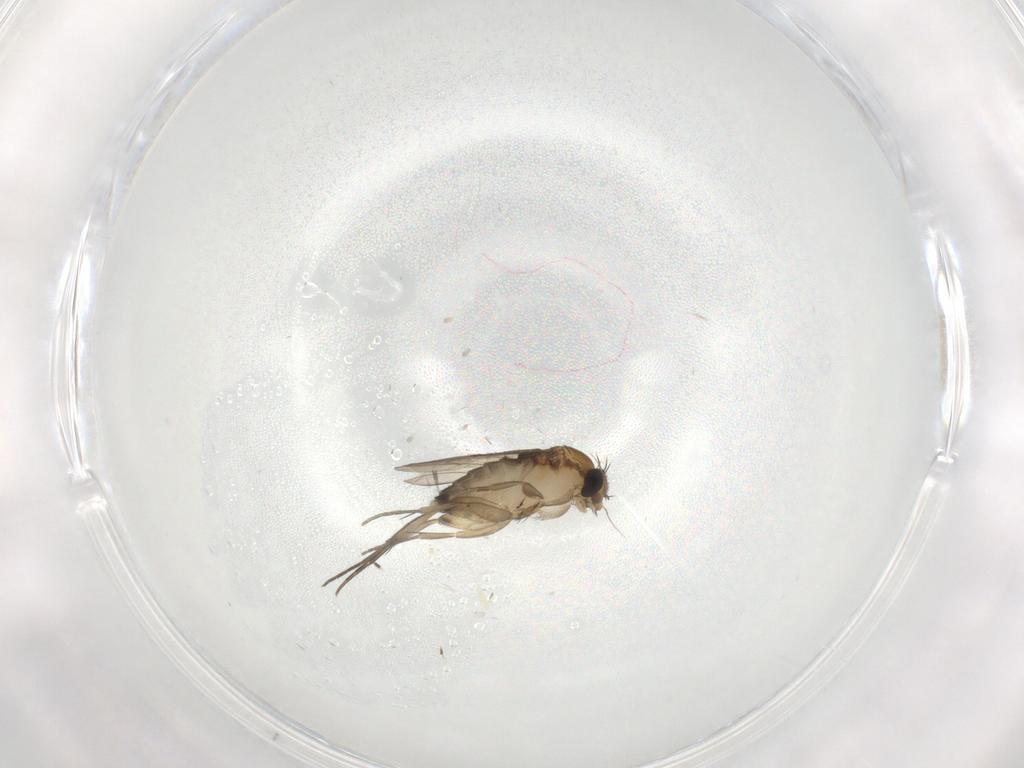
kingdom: Animalia
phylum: Arthropoda
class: Insecta
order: Diptera
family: Phoridae
